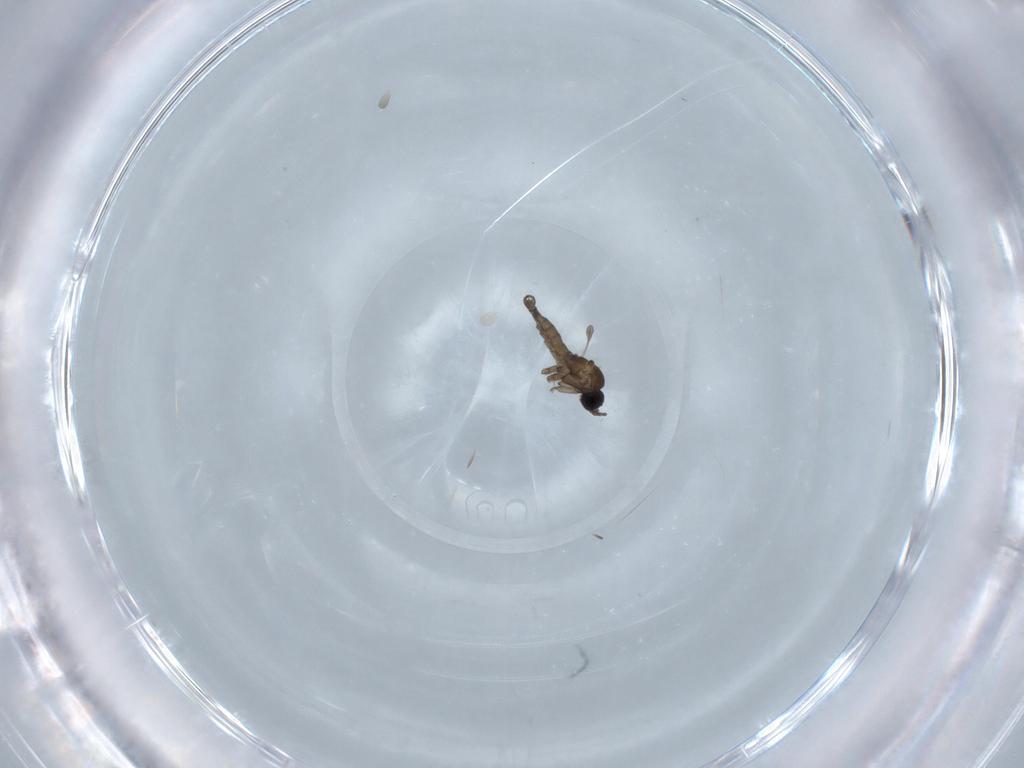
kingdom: Animalia
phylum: Arthropoda
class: Insecta
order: Diptera
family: Sciaridae
